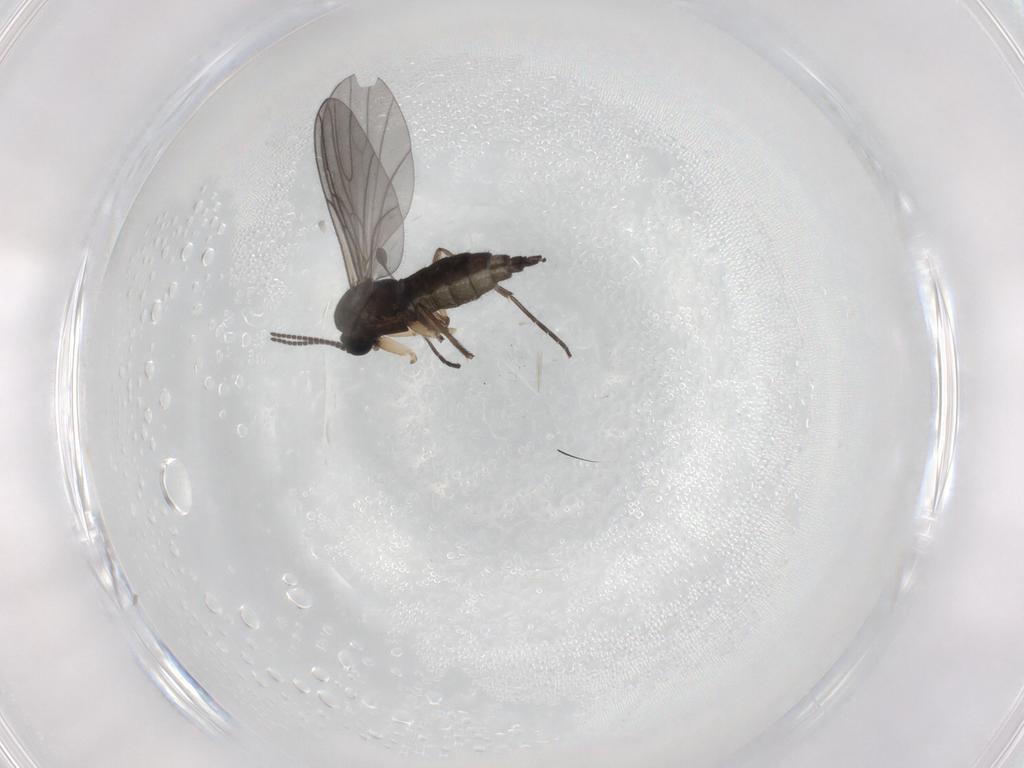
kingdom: Animalia
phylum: Arthropoda
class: Insecta
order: Diptera
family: Sciaridae
